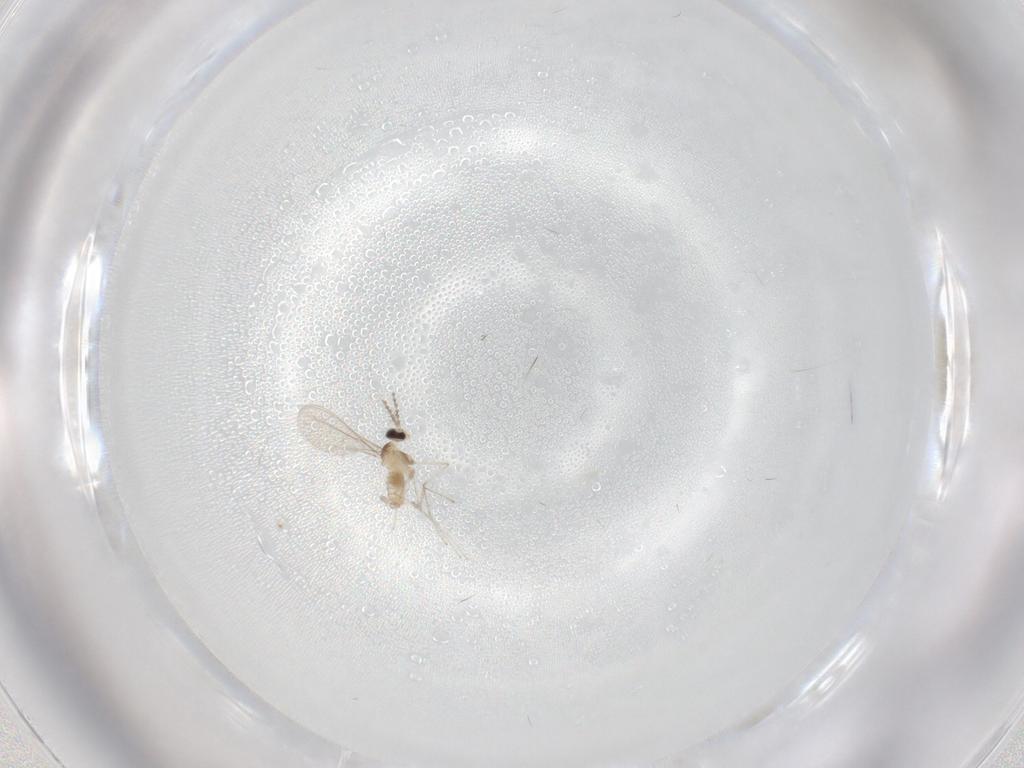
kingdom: Animalia
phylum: Arthropoda
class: Insecta
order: Diptera
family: Cecidomyiidae
